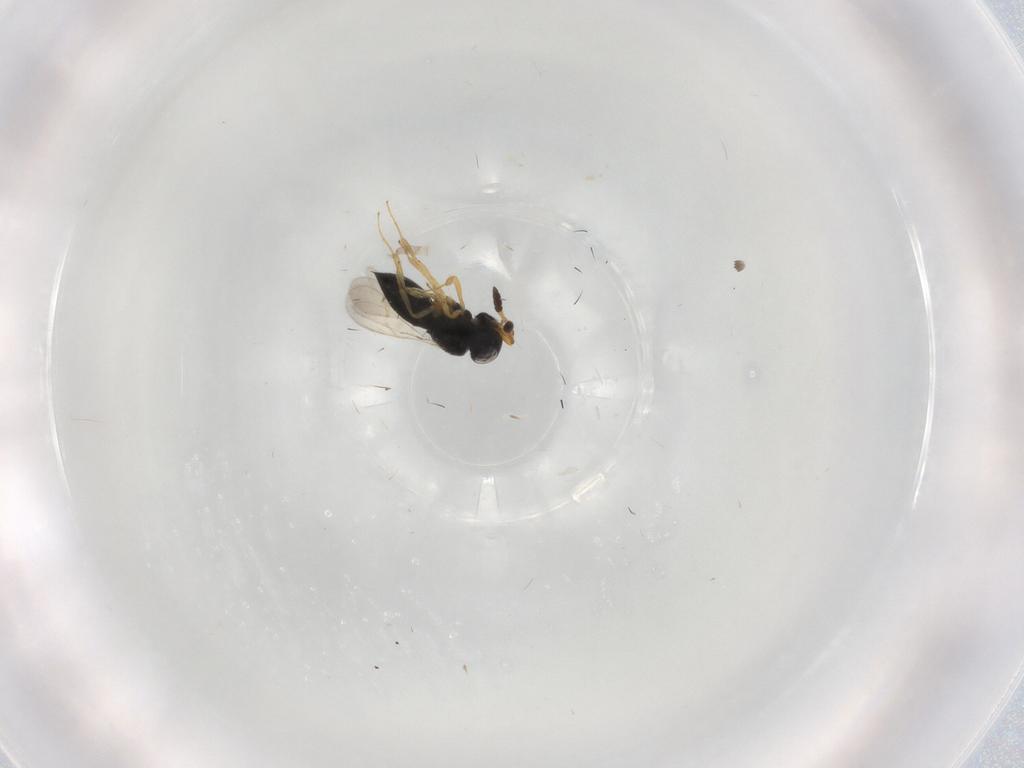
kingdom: Animalia
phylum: Arthropoda
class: Insecta
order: Hymenoptera
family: Scelionidae
